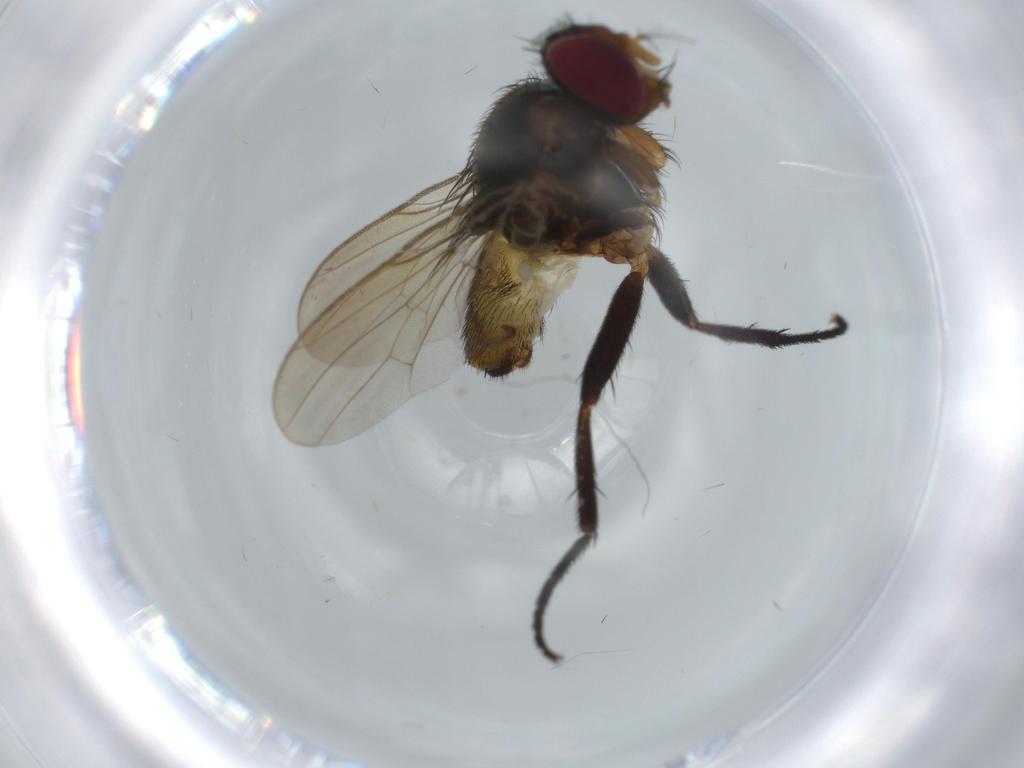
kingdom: Animalia
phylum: Arthropoda
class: Insecta
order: Diptera
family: Anthomyiidae
